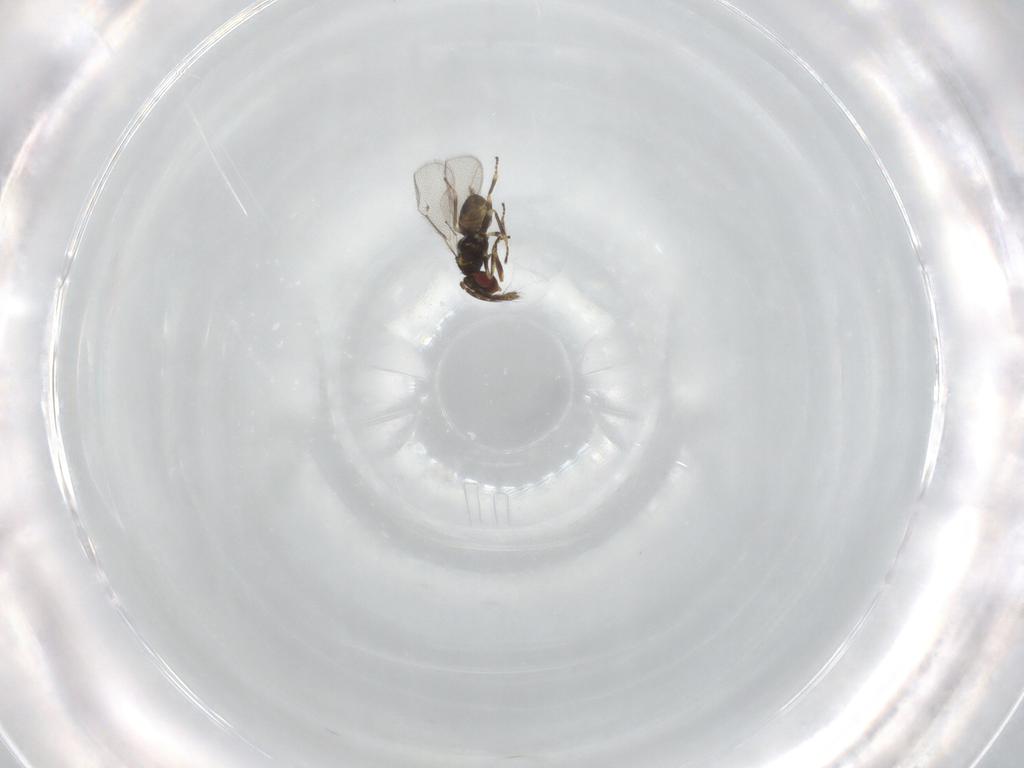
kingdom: Animalia
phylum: Arthropoda
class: Insecta
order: Hymenoptera
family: Eulophidae
